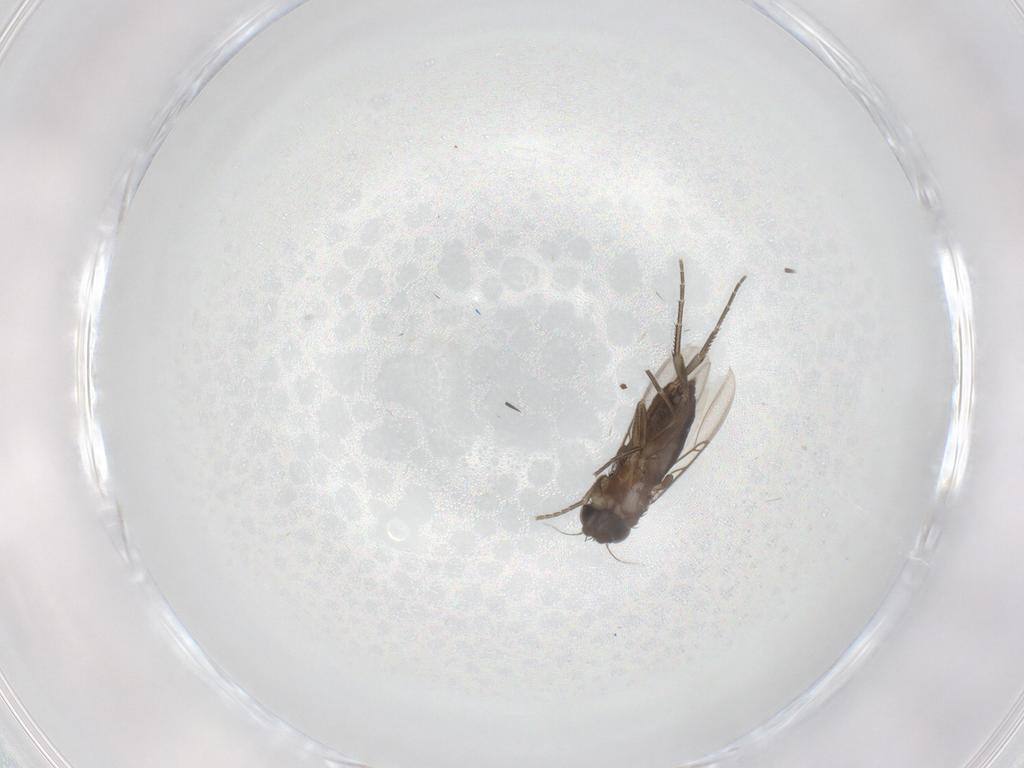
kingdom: Animalia
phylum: Arthropoda
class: Insecta
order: Diptera
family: Phoridae
